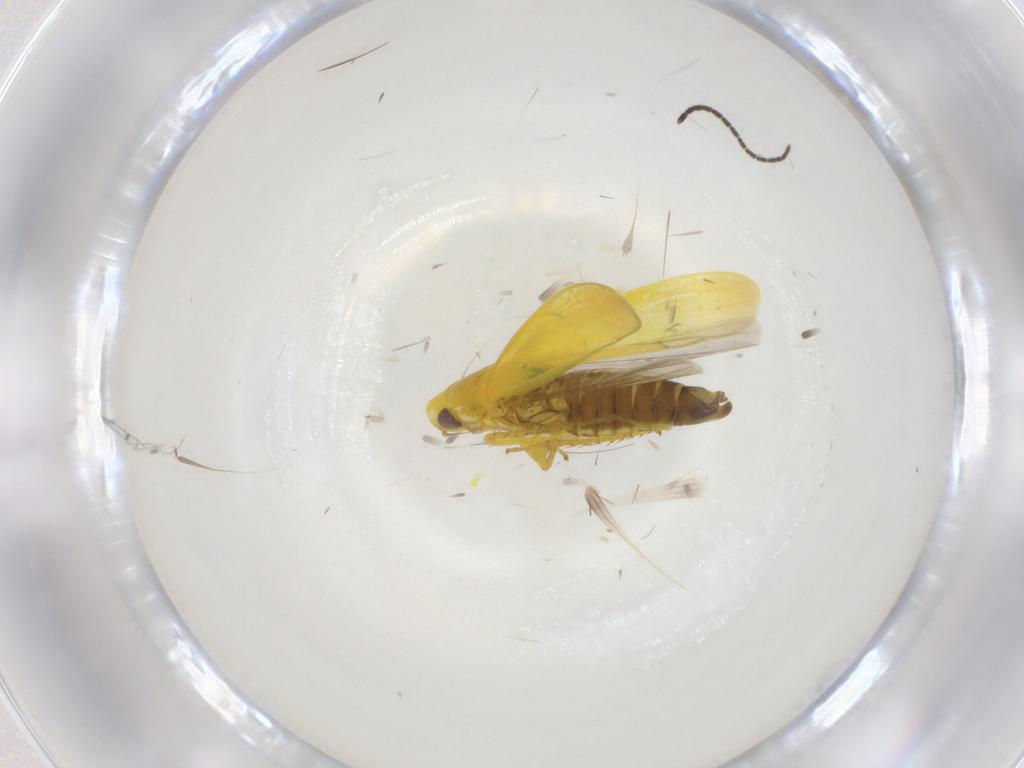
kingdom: Animalia
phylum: Arthropoda
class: Insecta
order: Hemiptera
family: Cicadellidae
